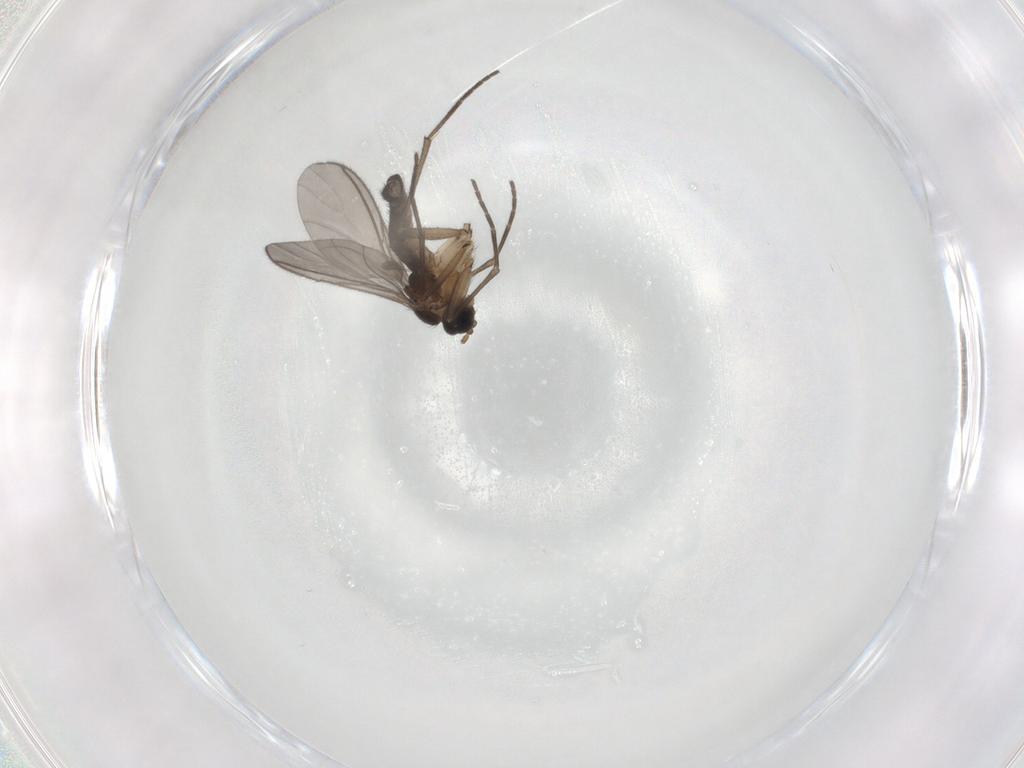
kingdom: Animalia
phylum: Arthropoda
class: Insecta
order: Diptera
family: Sciaridae
